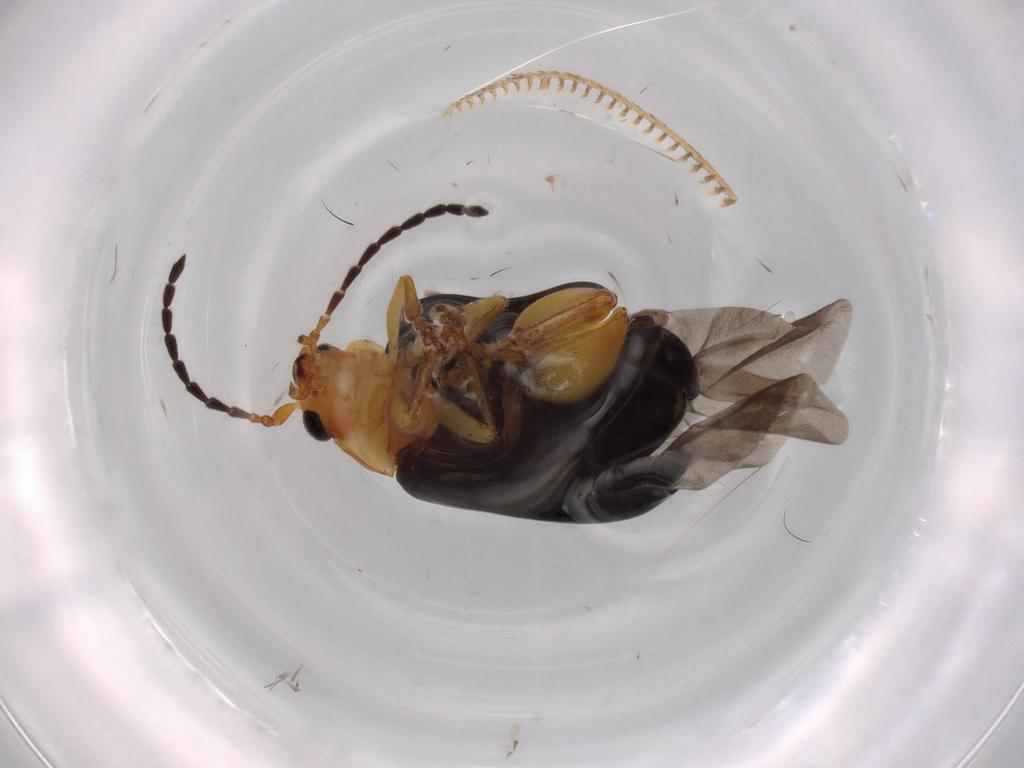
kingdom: Animalia
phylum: Arthropoda
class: Insecta
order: Coleoptera
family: Chrysomelidae
